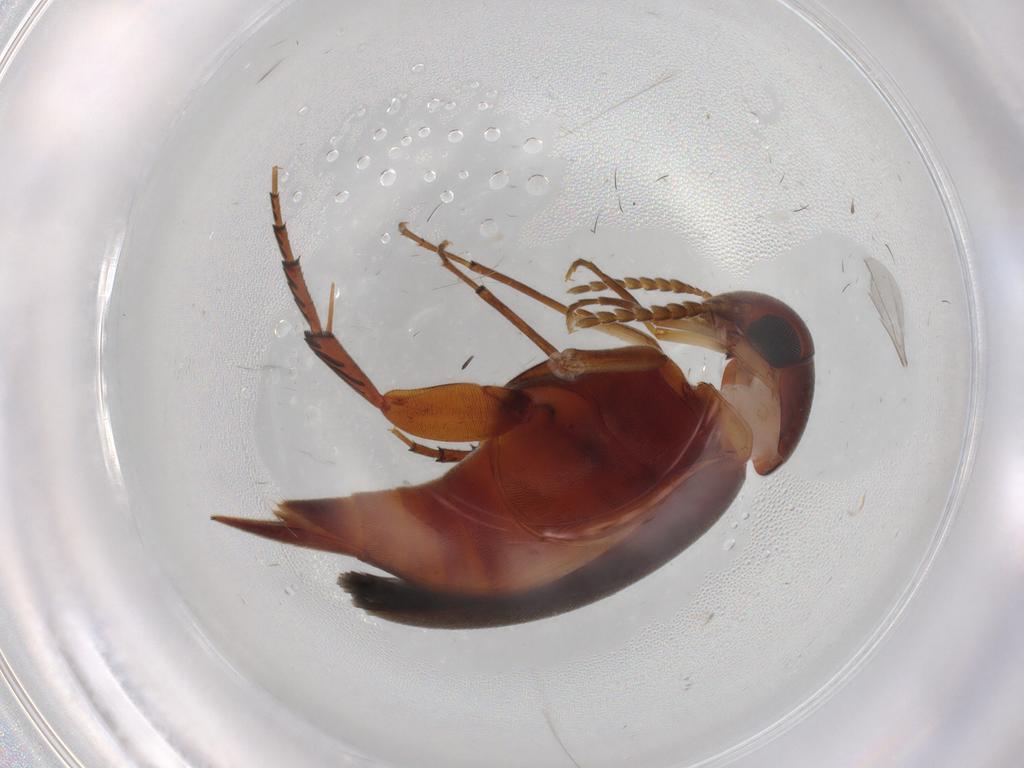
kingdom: Animalia
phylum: Arthropoda
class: Insecta
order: Coleoptera
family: Mordellidae
